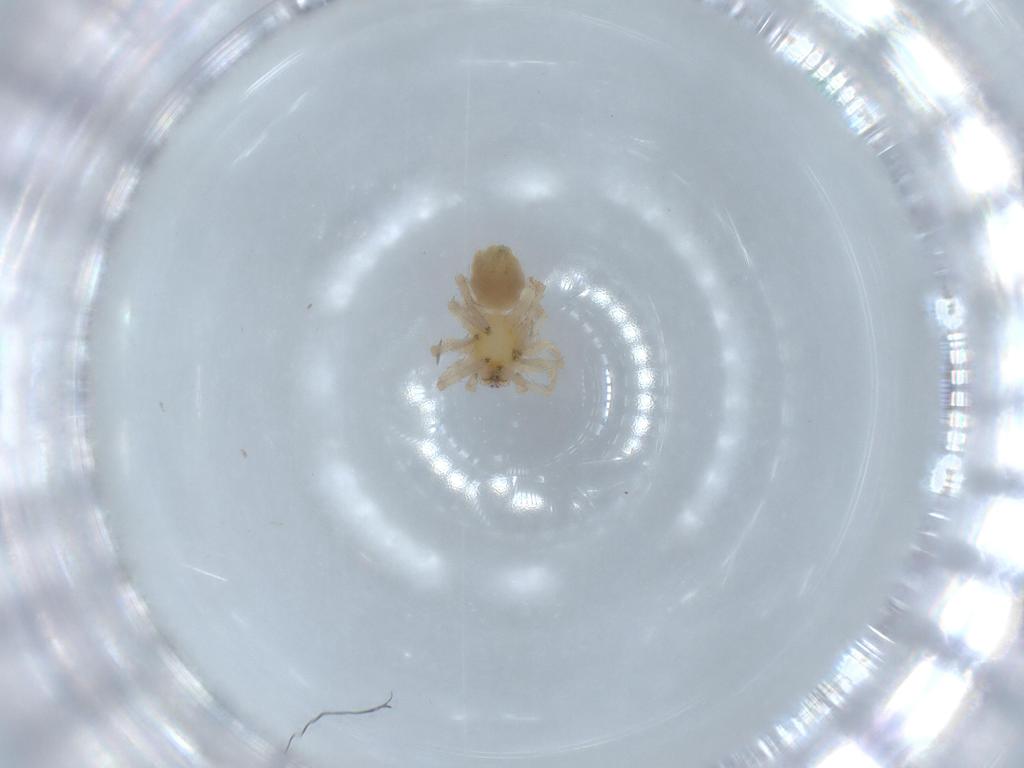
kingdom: Animalia
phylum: Arthropoda
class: Arachnida
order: Araneae
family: Anyphaenidae
